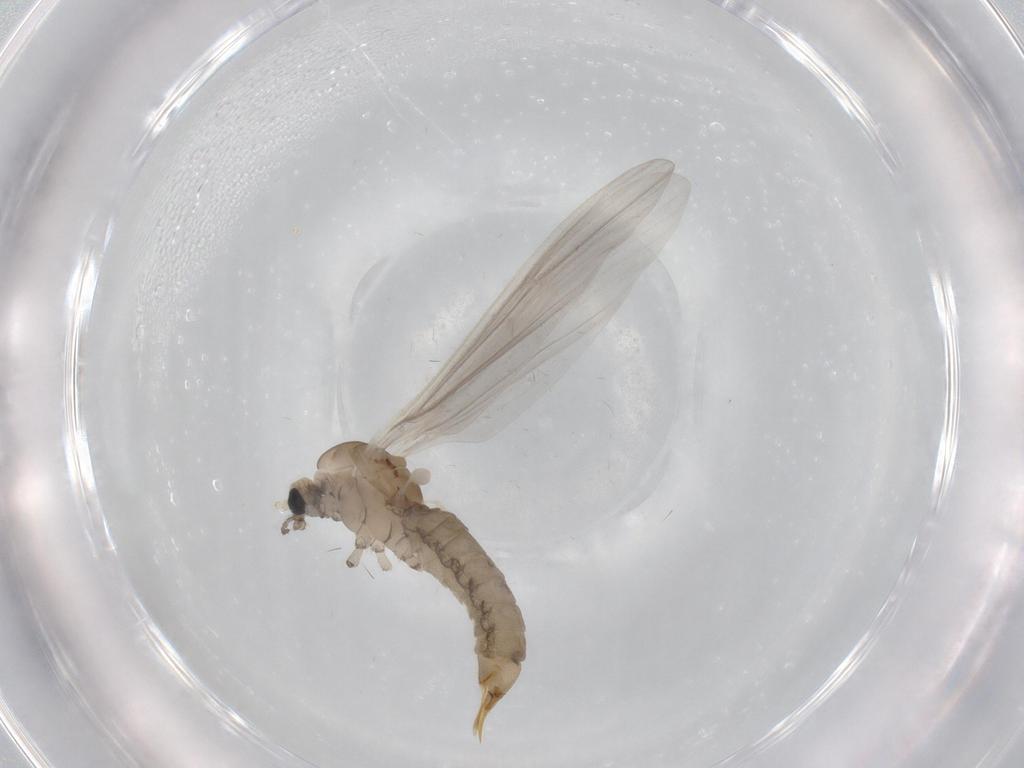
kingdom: Animalia
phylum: Arthropoda
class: Insecta
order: Diptera
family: Limoniidae
